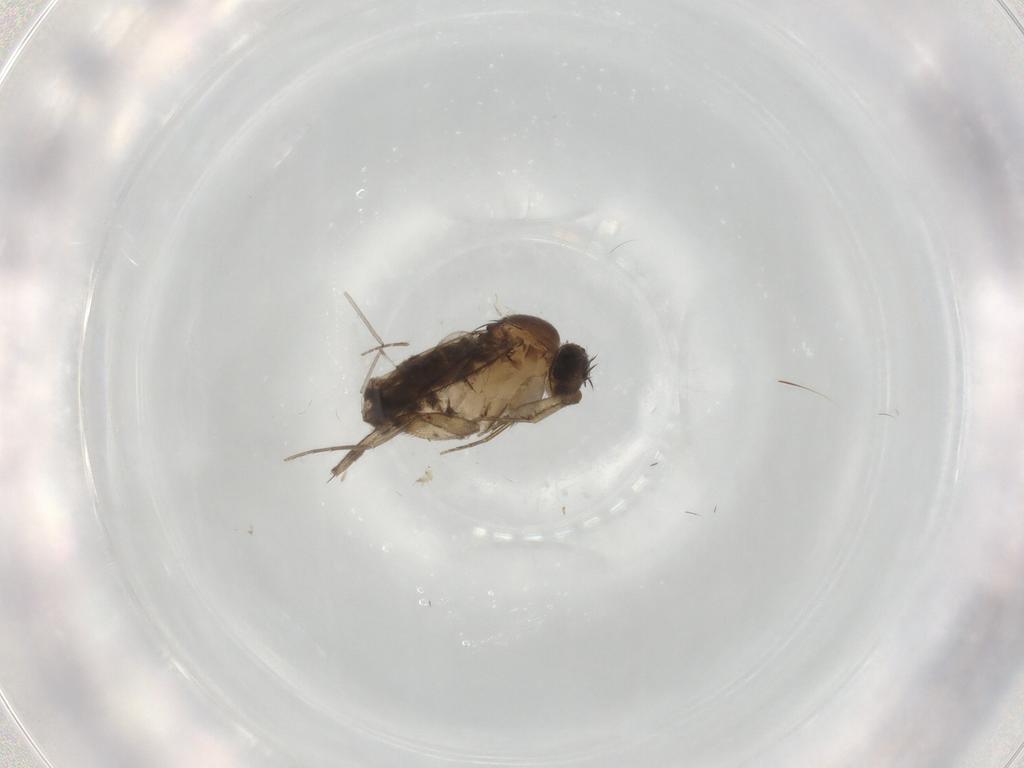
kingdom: Animalia
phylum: Arthropoda
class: Insecta
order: Diptera
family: Phoridae
